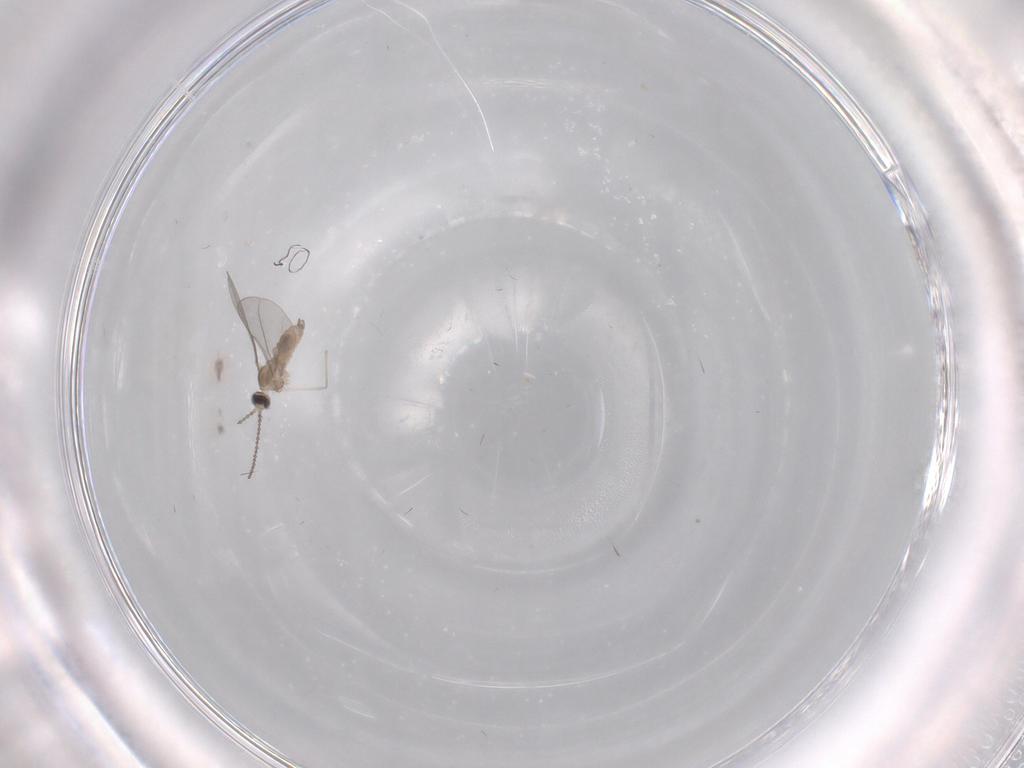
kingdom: Animalia
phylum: Arthropoda
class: Insecta
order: Diptera
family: Cecidomyiidae
